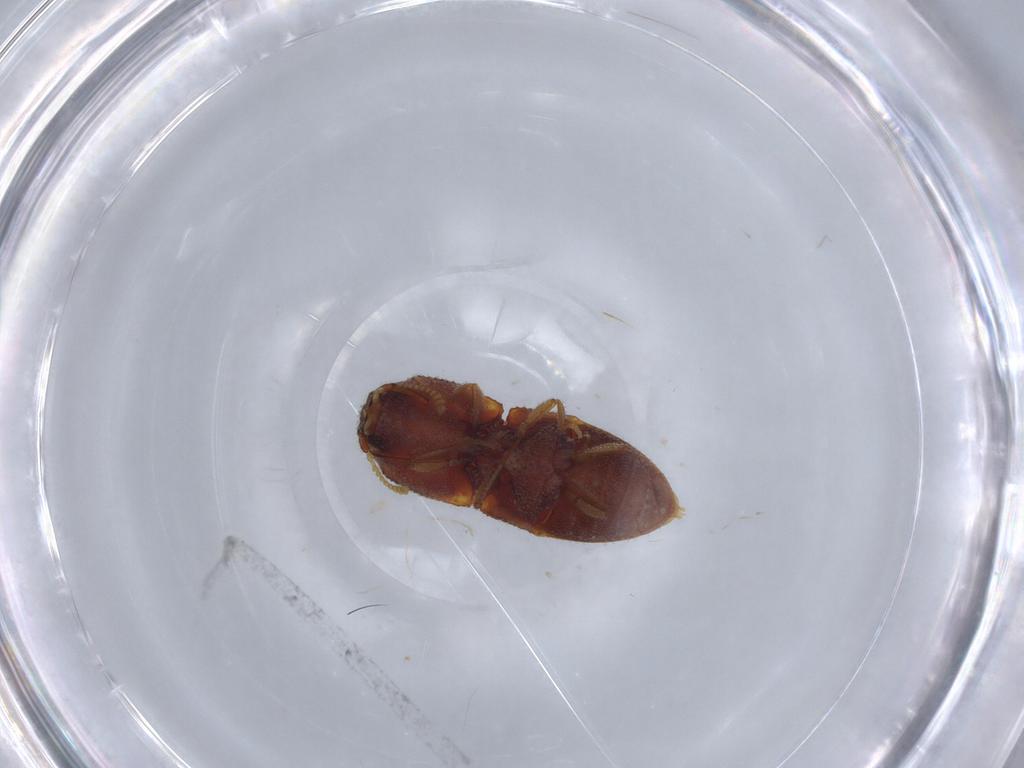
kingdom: Animalia
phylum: Arthropoda
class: Insecta
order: Coleoptera
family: Elateridae
